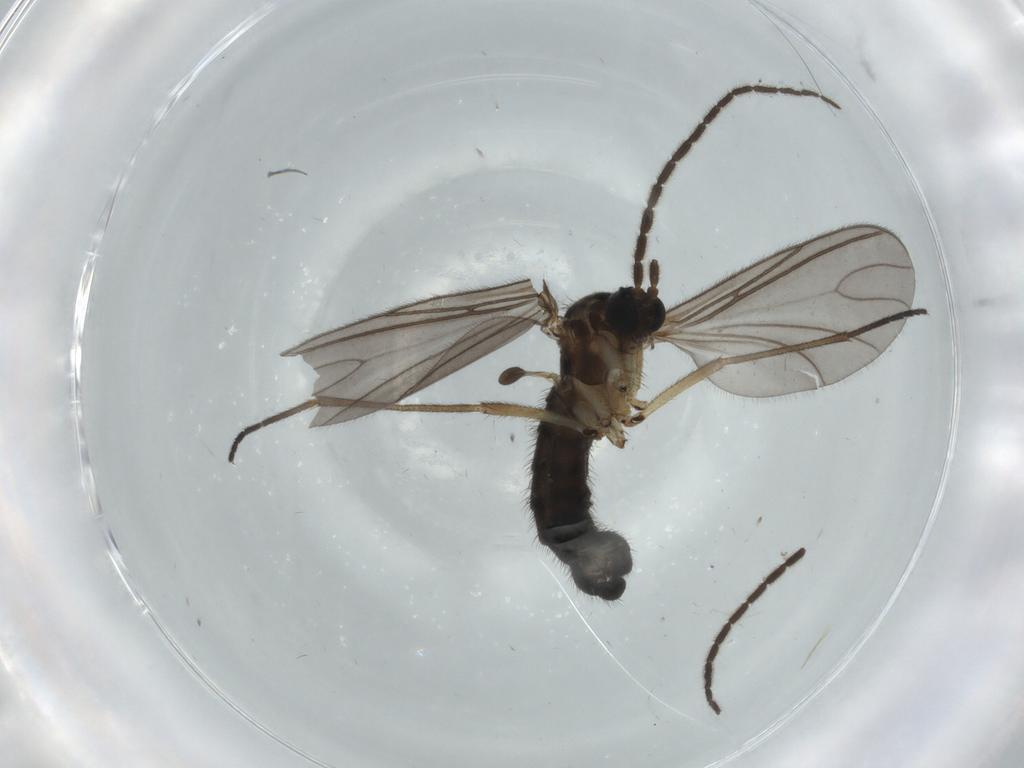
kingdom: Animalia
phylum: Arthropoda
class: Insecta
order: Diptera
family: Sciaridae
